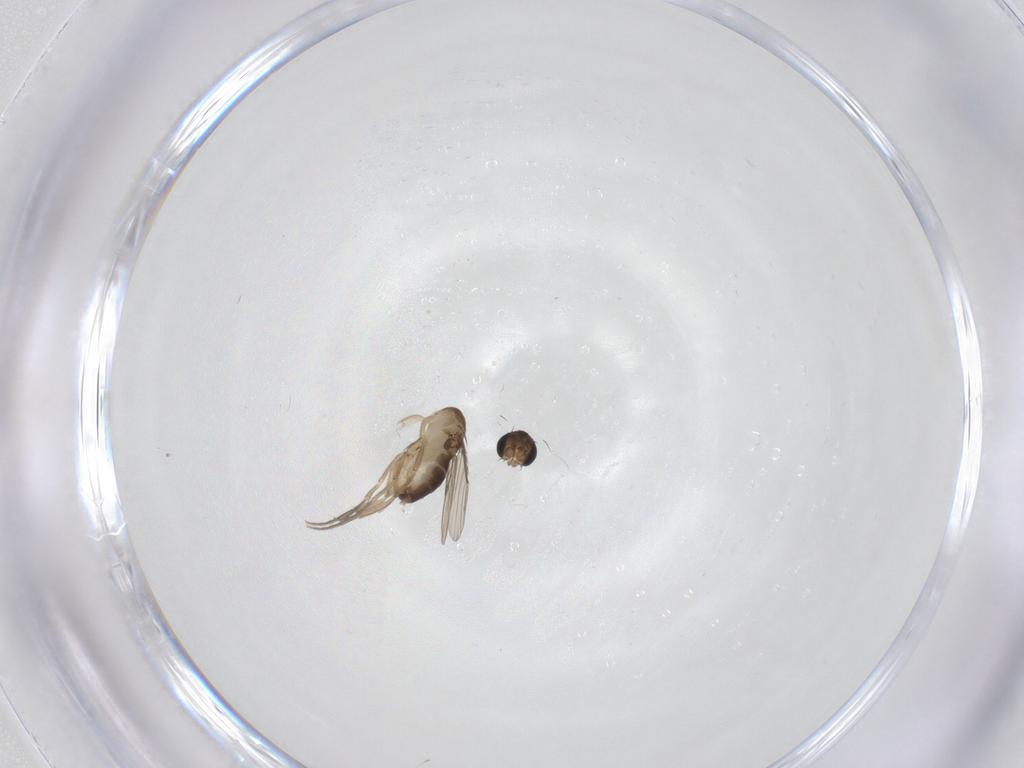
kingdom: Animalia
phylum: Arthropoda
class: Insecta
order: Diptera
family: Phoridae
